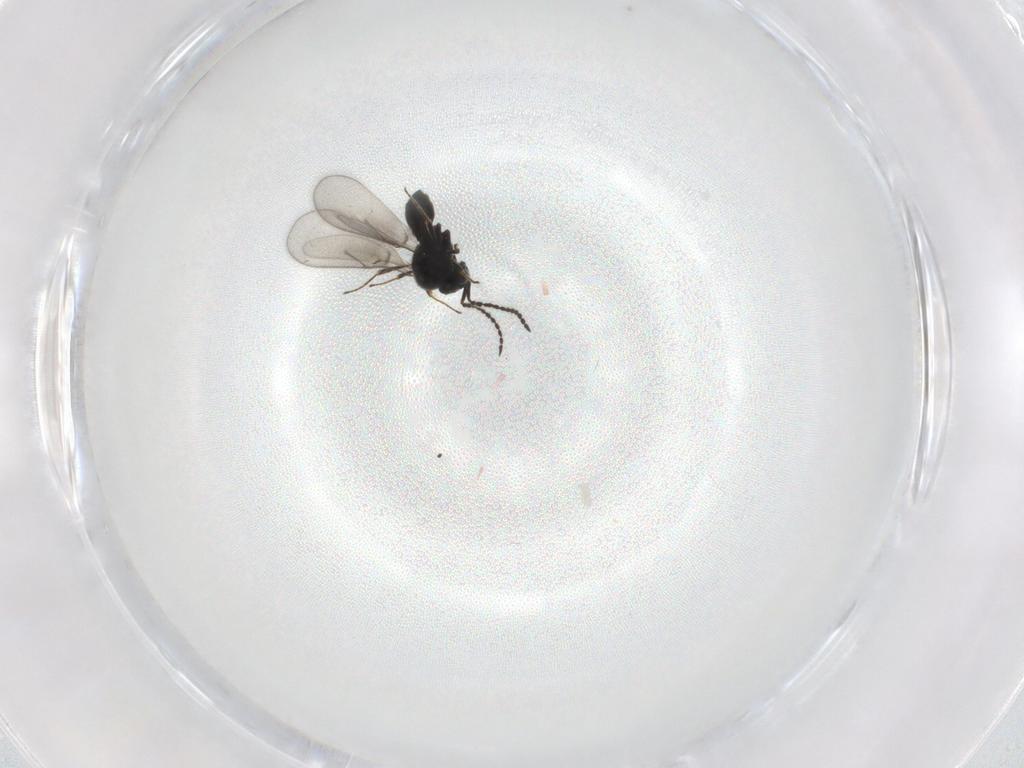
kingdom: Animalia
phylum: Arthropoda
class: Insecta
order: Hymenoptera
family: Scelionidae
